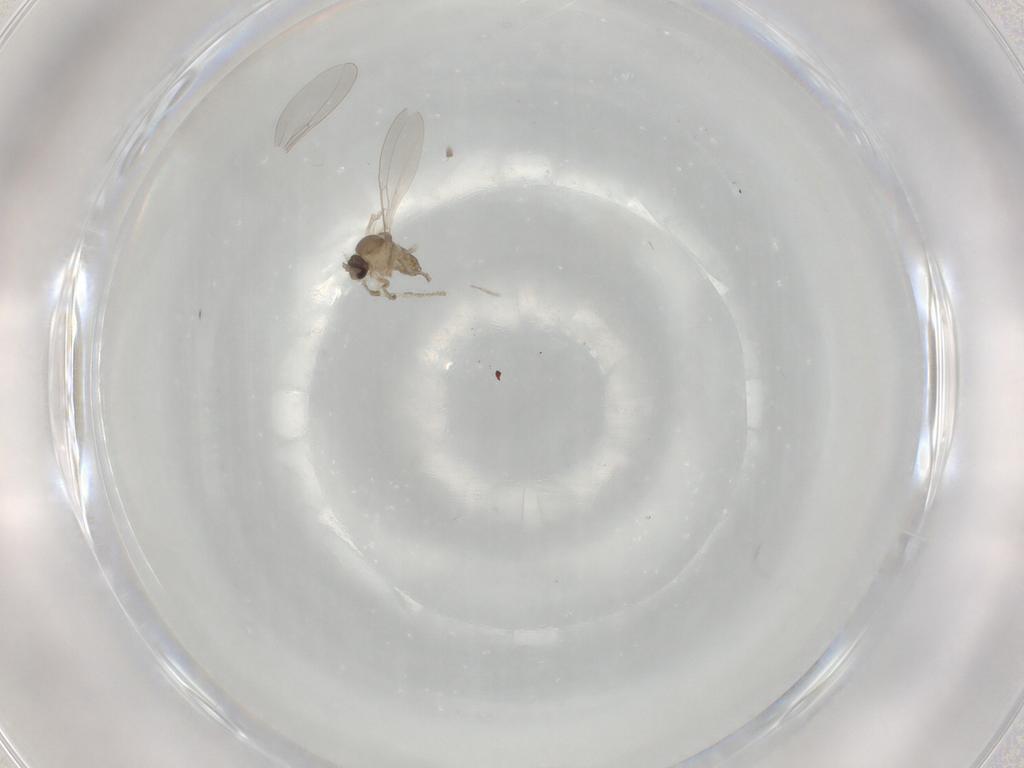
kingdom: Animalia
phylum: Arthropoda
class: Insecta
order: Diptera
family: Cecidomyiidae
